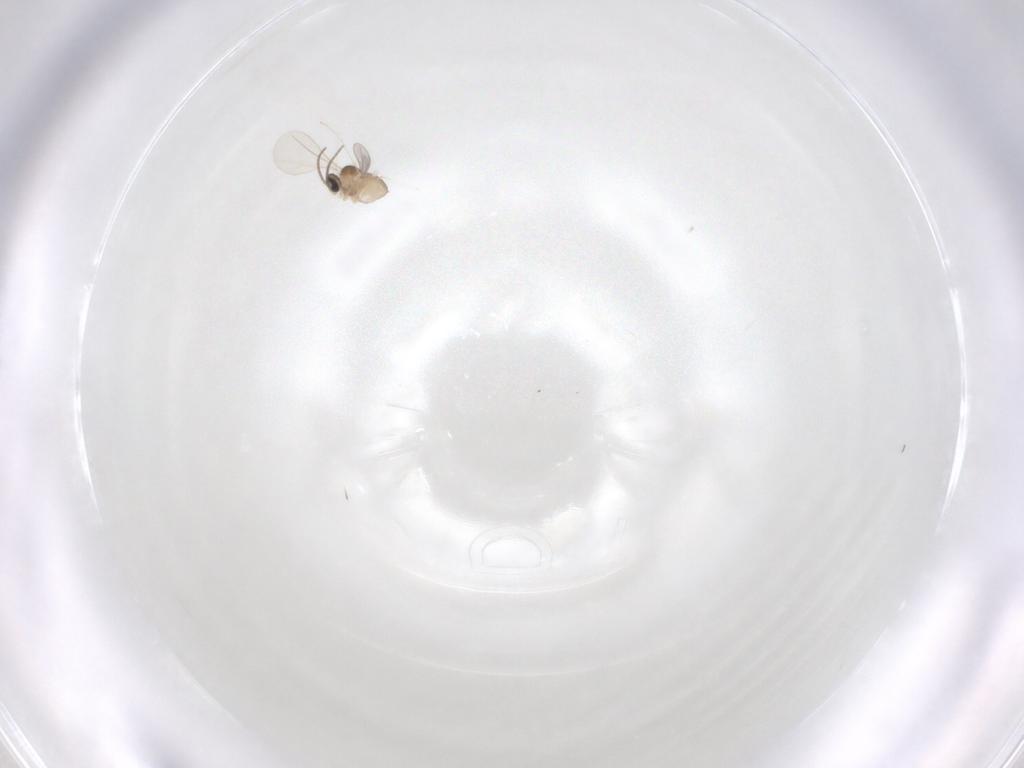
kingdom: Animalia
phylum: Arthropoda
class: Insecta
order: Diptera
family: Cecidomyiidae
